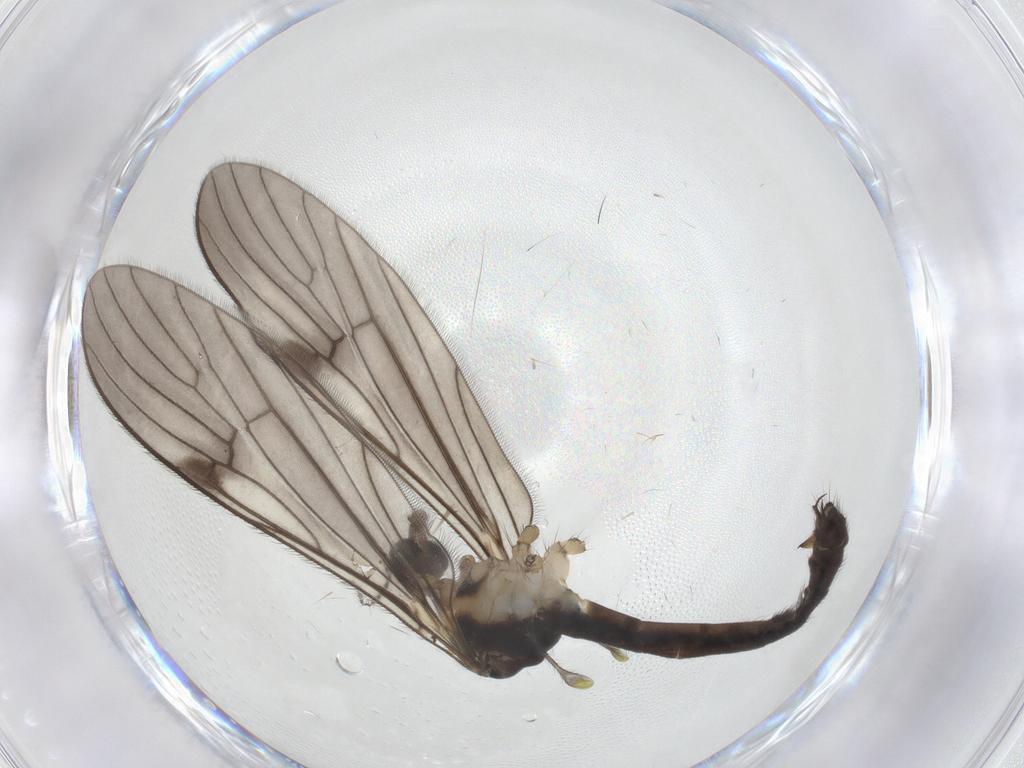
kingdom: Animalia
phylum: Arthropoda
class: Insecta
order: Diptera
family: Limoniidae
